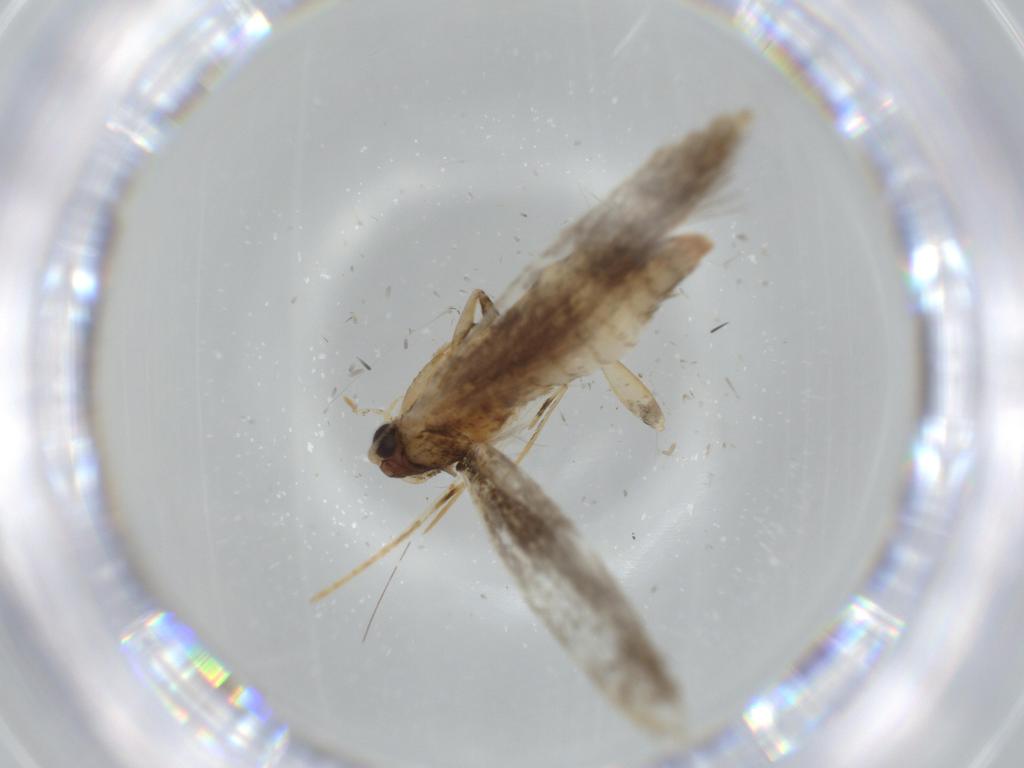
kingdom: Animalia
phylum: Arthropoda
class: Insecta
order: Lepidoptera
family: Tineidae
